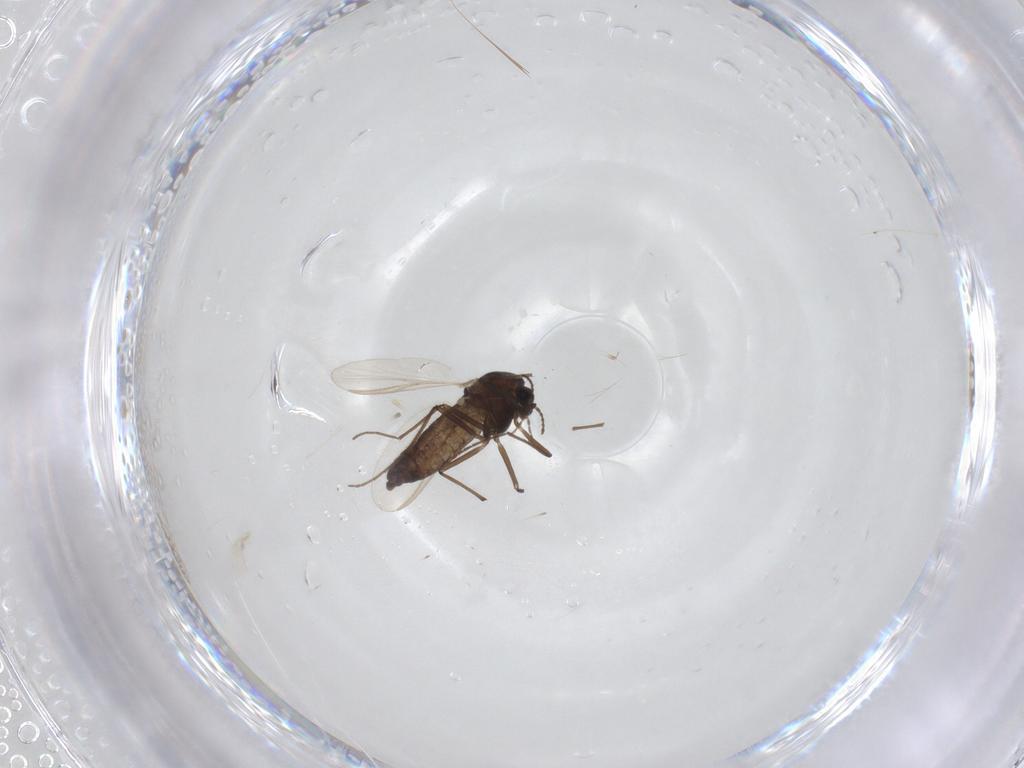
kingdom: Animalia
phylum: Arthropoda
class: Insecta
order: Diptera
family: Chironomidae
